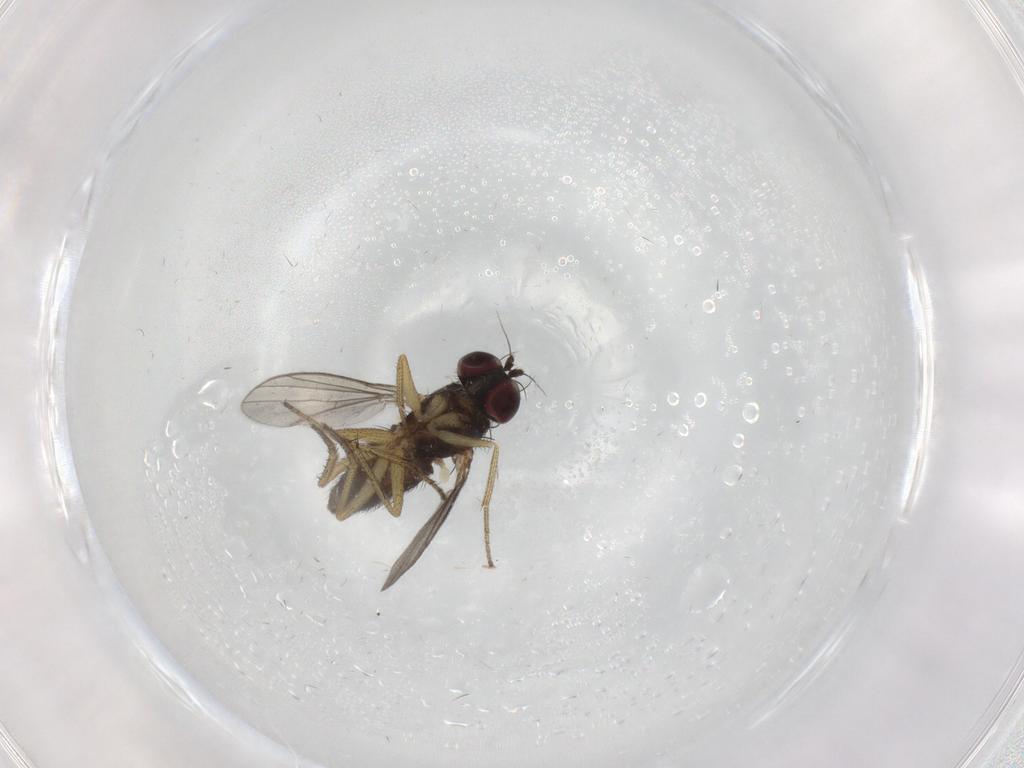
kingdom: Animalia
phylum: Arthropoda
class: Insecta
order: Diptera
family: Dolichopodidae
